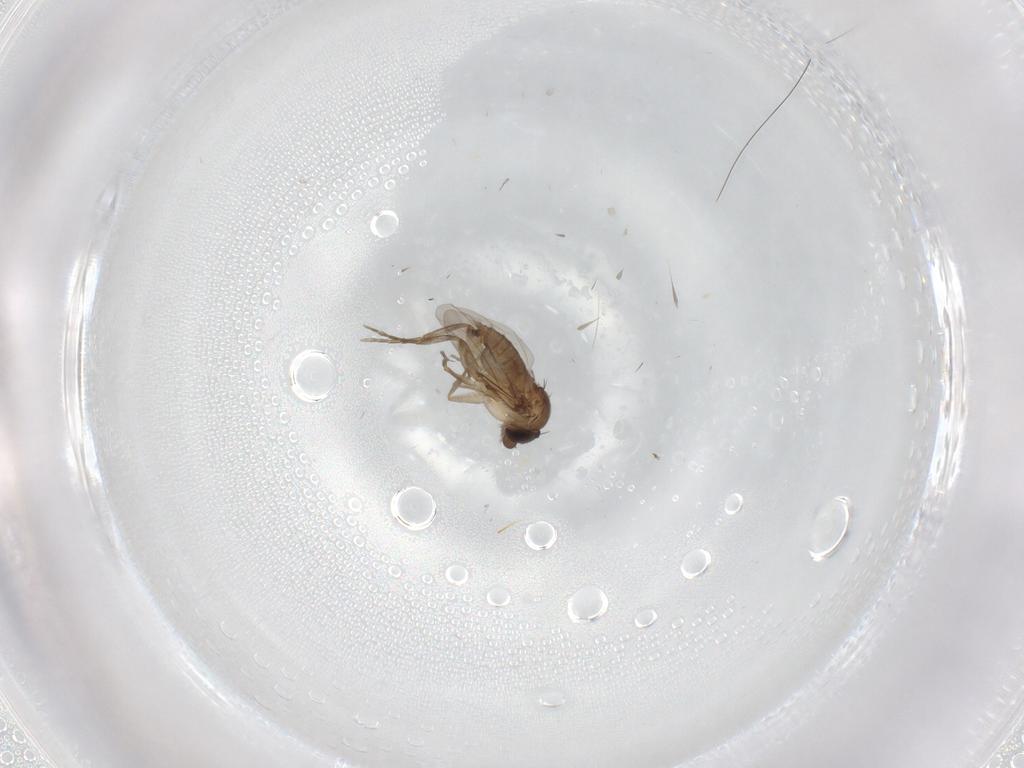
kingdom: Animalia
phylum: Arthropoda
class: Insecta
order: Diptera
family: Phoridae
